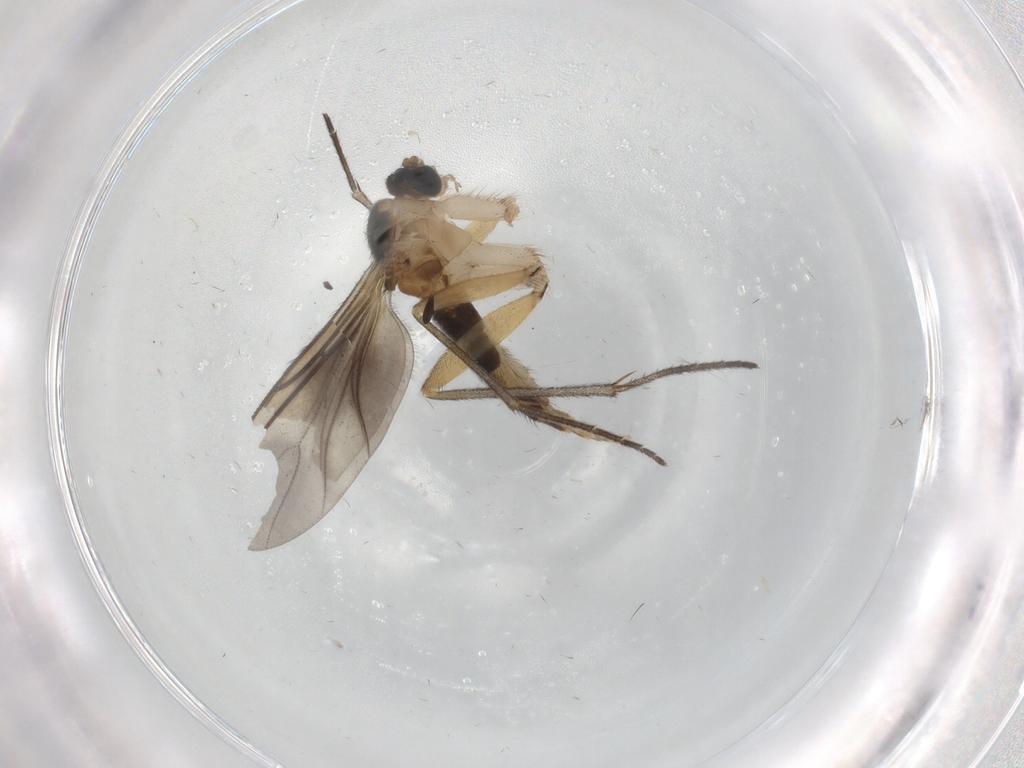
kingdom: Animalia
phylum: Arthropoda
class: Insecta
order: Diptera
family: Sciaridae
